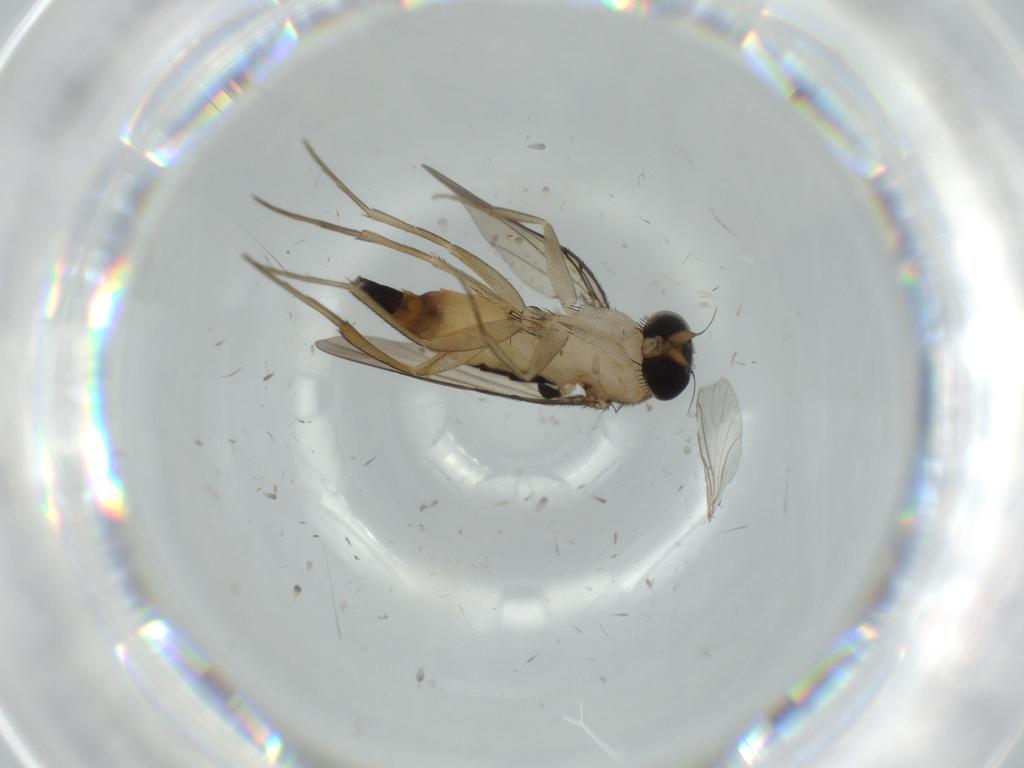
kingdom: Animalia
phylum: Arthropoda
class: Insecta
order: Diptera
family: Phoridae
